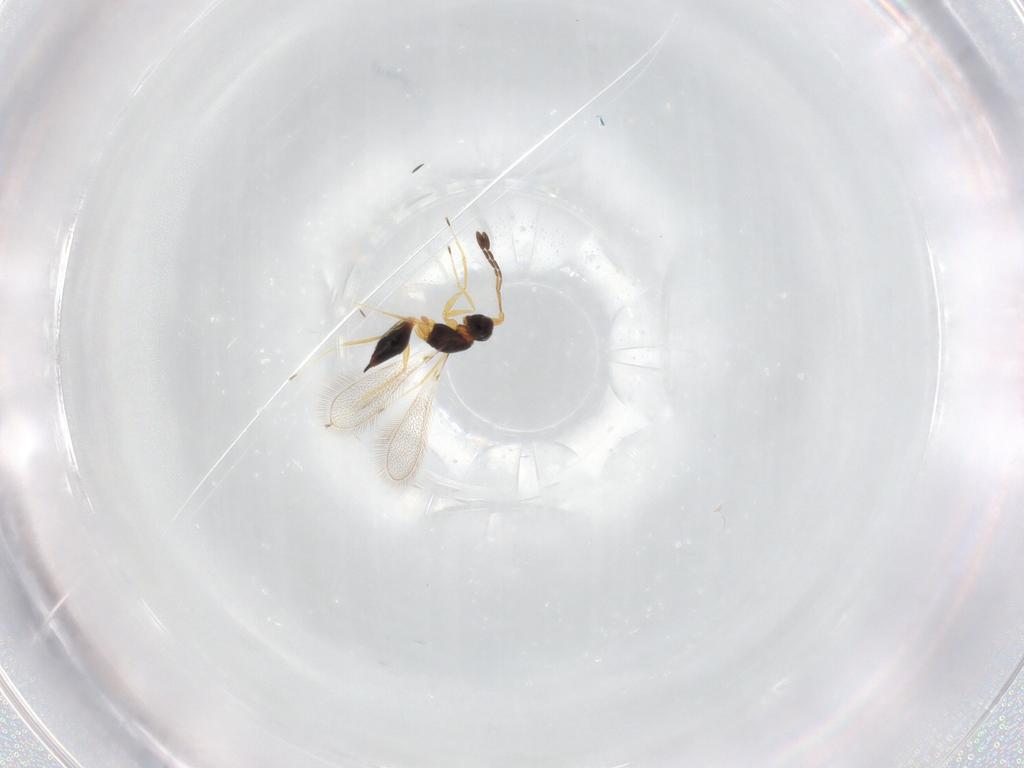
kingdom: Animalia
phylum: Arthropoda
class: Insecta
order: Hymenoptera
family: Mymaridae
